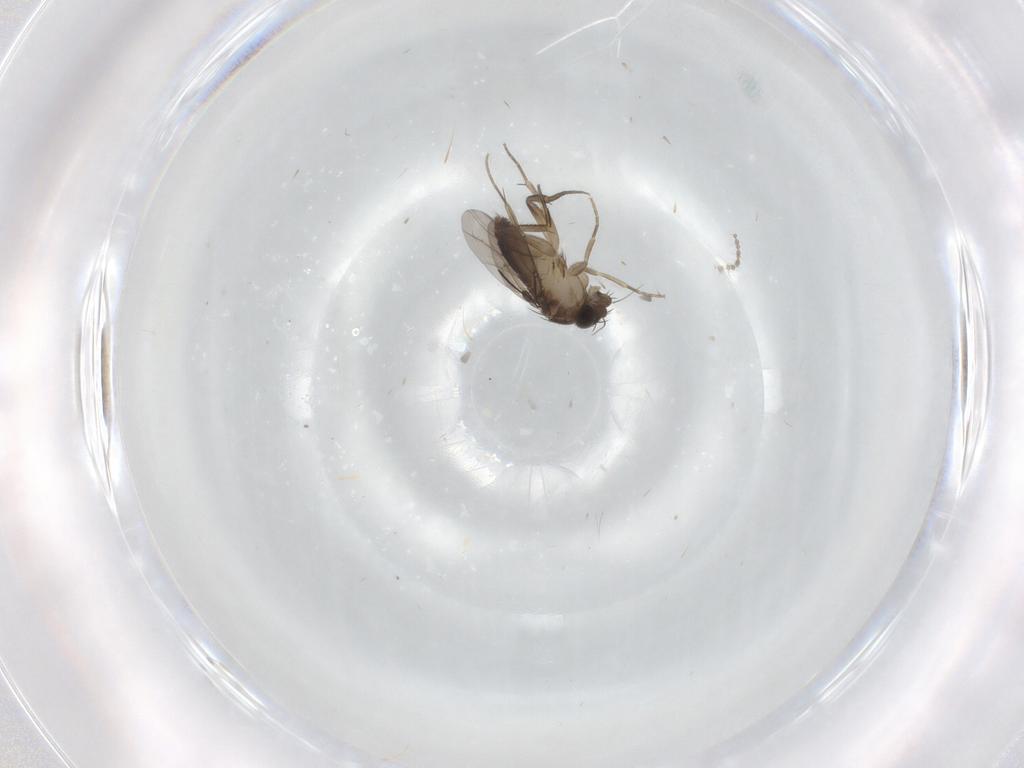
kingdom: Animalia
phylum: Arthropoda
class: Insecta
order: Diptera
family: Phoridae
